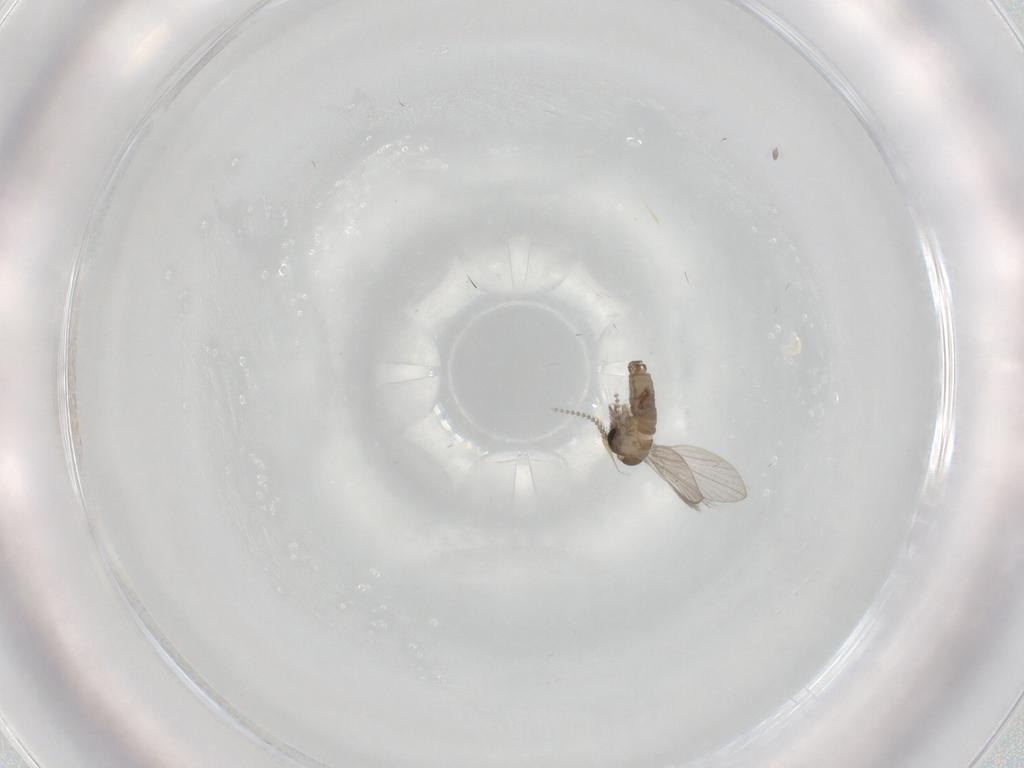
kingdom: Animalia
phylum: Arthropoda
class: Insecta
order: Diptera
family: Psychodidae
